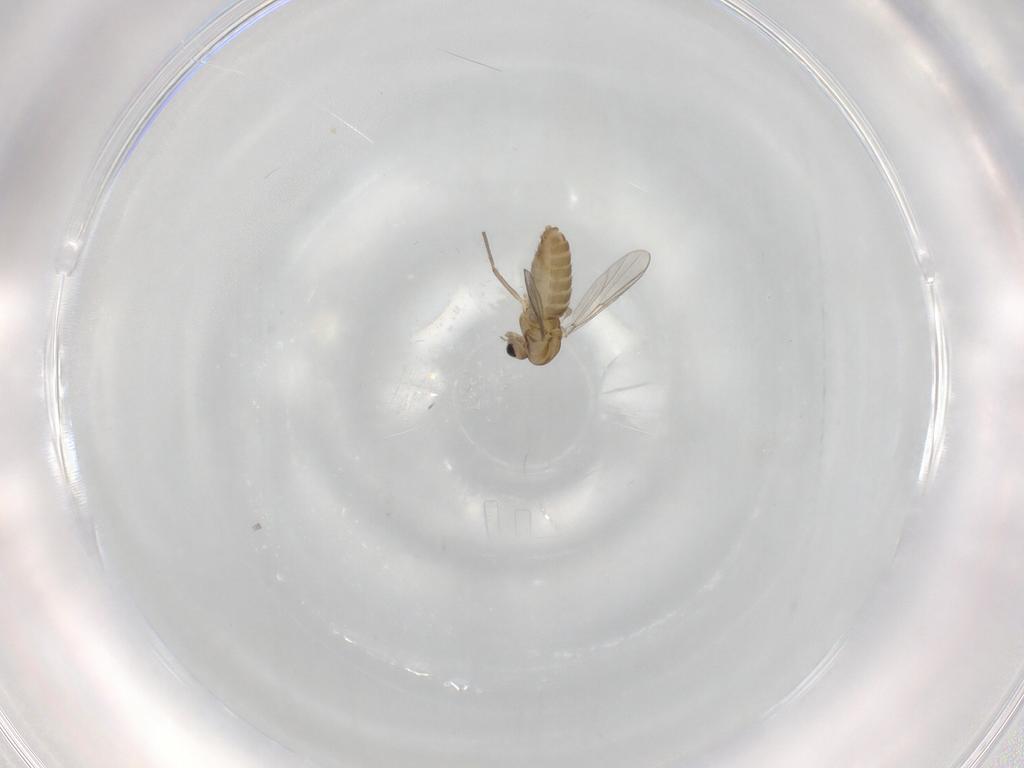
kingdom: Animalia
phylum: Arthropoda
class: Insecta
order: Diptera
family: Chironomidae
